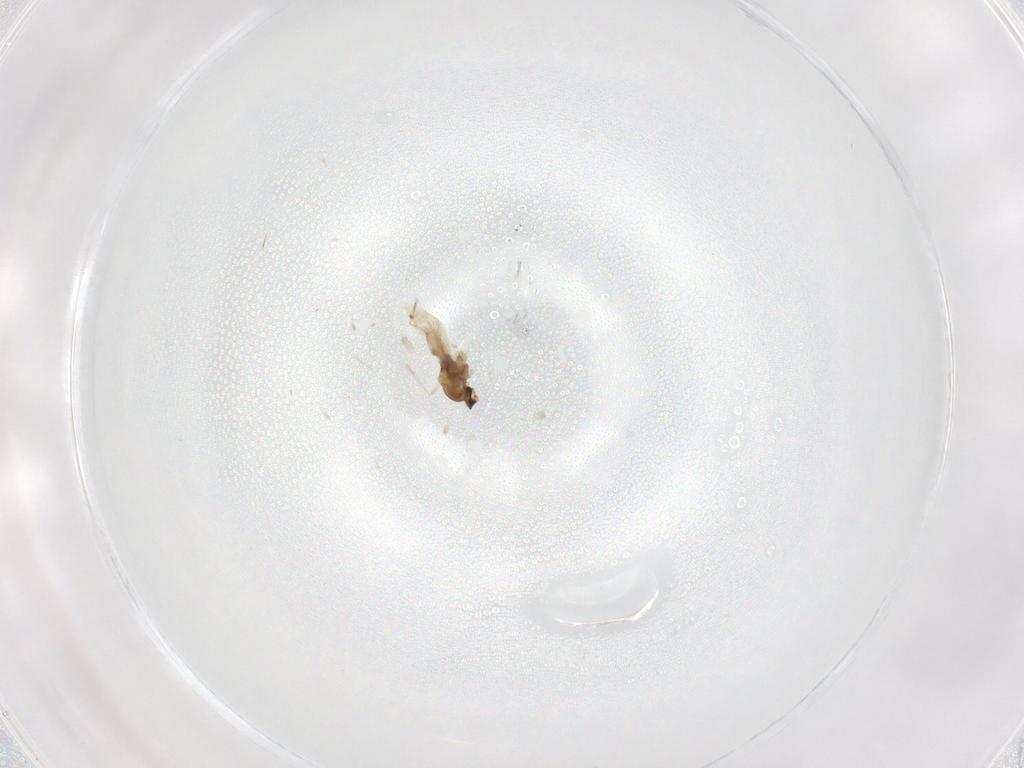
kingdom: Animalia
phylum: Arthropoda
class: Insecta
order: Diptera
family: Cecidomyiidae
